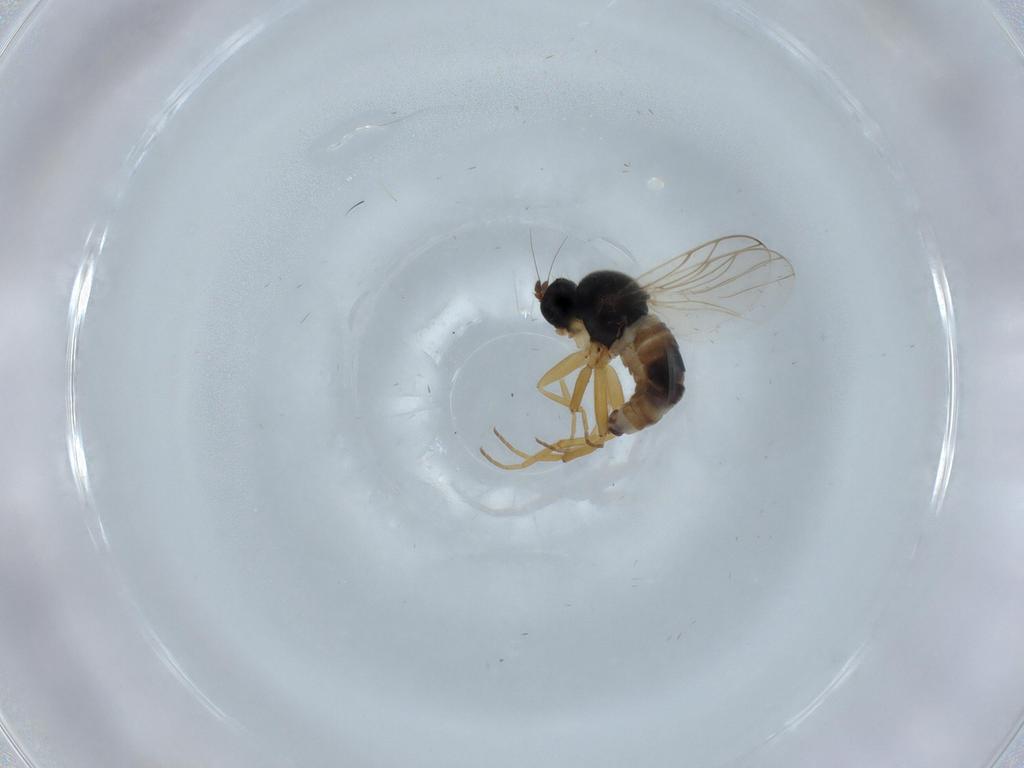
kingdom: Animalia
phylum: Arthropoda
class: Insecta
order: Diptera
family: Hybotidae
